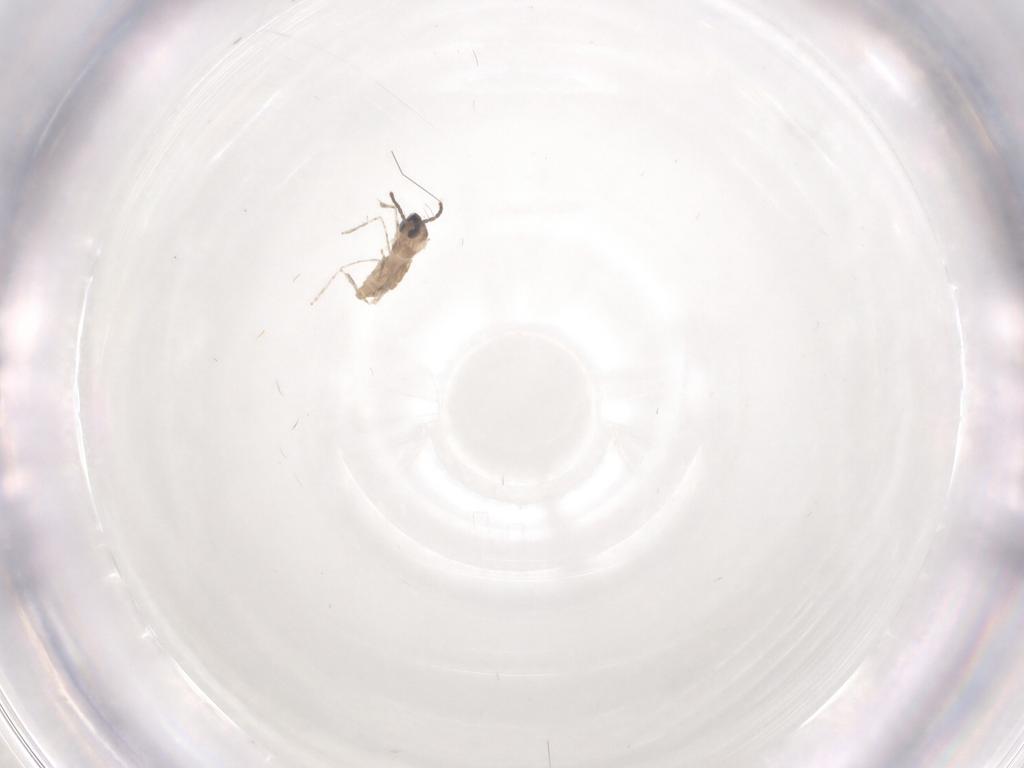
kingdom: Animalia
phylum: Arthropoda
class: Insecta
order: Diptera
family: Cecidomyiidae
